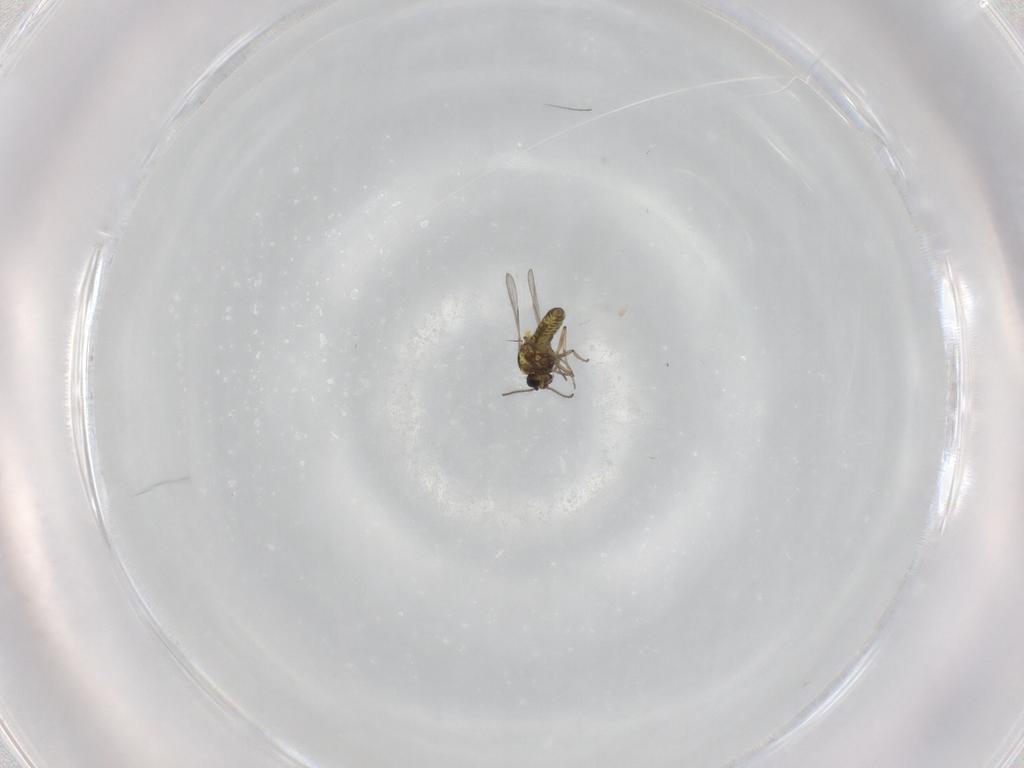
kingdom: Animalia
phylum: Arthropoda
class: Insecta
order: Diptera
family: Ceratopogonidae
